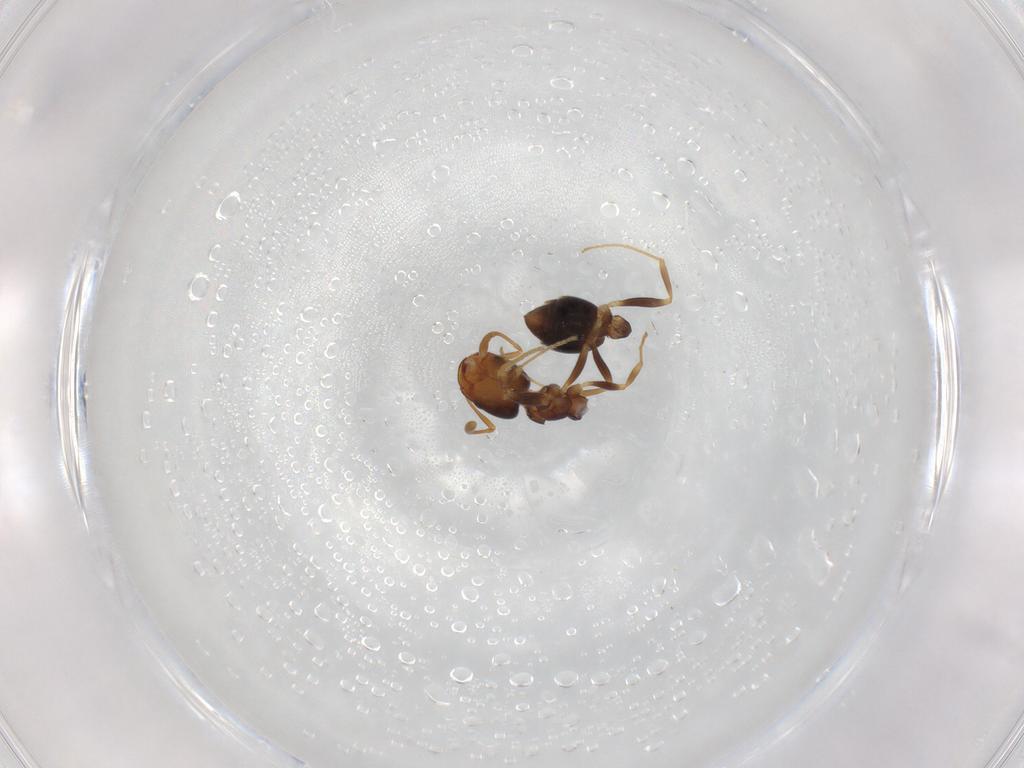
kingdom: Animalia
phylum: Arthropoda
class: Insecta
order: Hymenoptera
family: Formicidae
